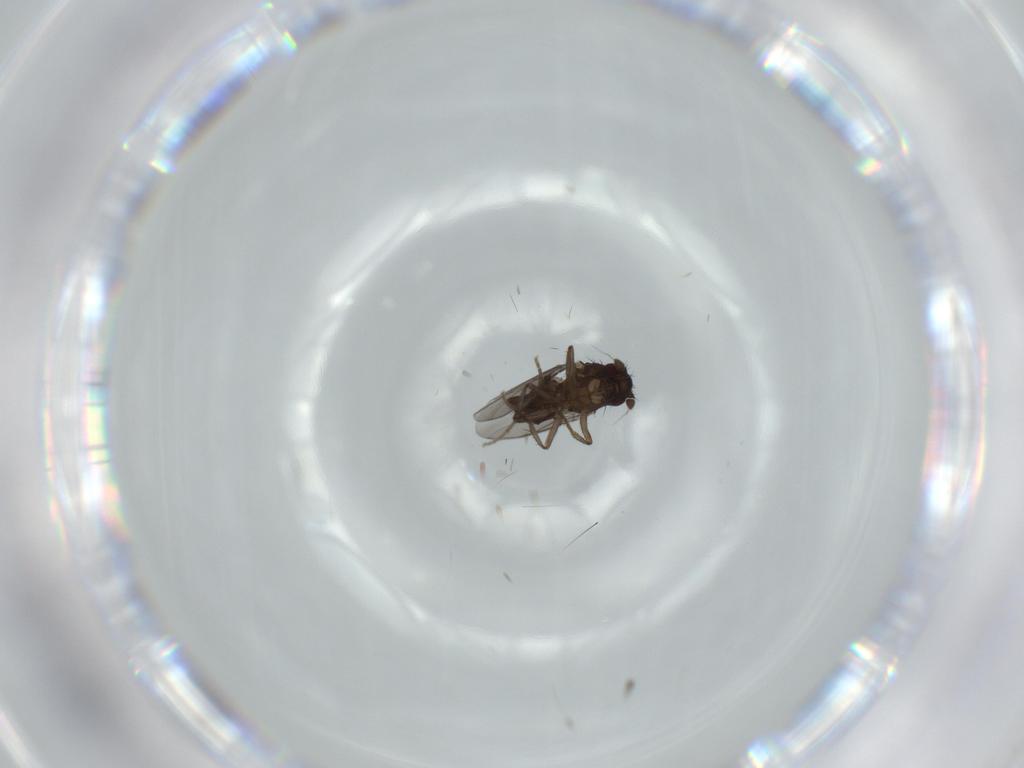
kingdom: Animalia
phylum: Arthropoda
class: Insecta
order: Diptera
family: Sphaeroceridae
